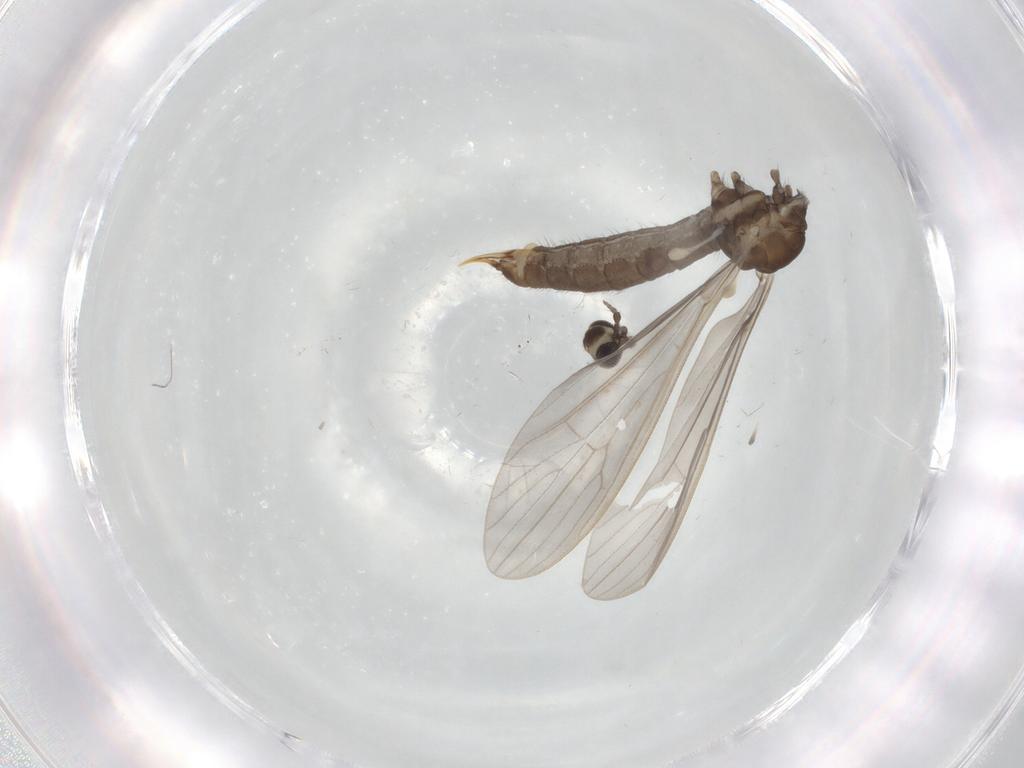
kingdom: Animalia
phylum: Arthropoda
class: Insecta
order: Diptera
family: Limoniidae
